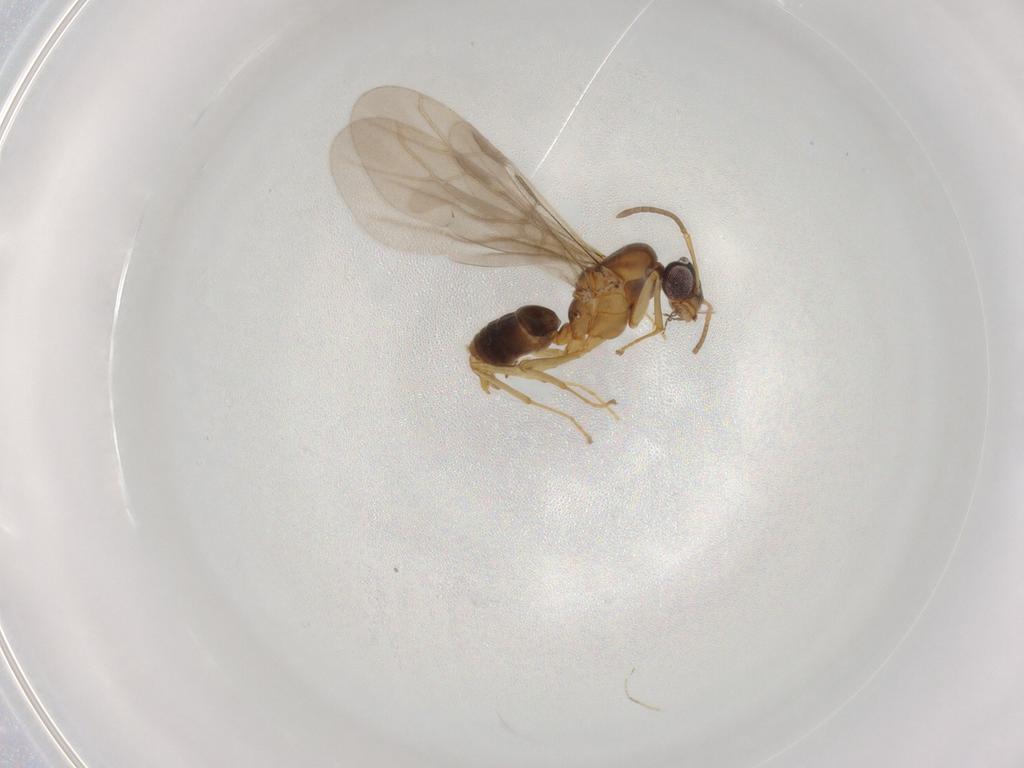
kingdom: Animalia
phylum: Arthropoda
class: Insecta
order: Hymenoptera
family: Formicidae
